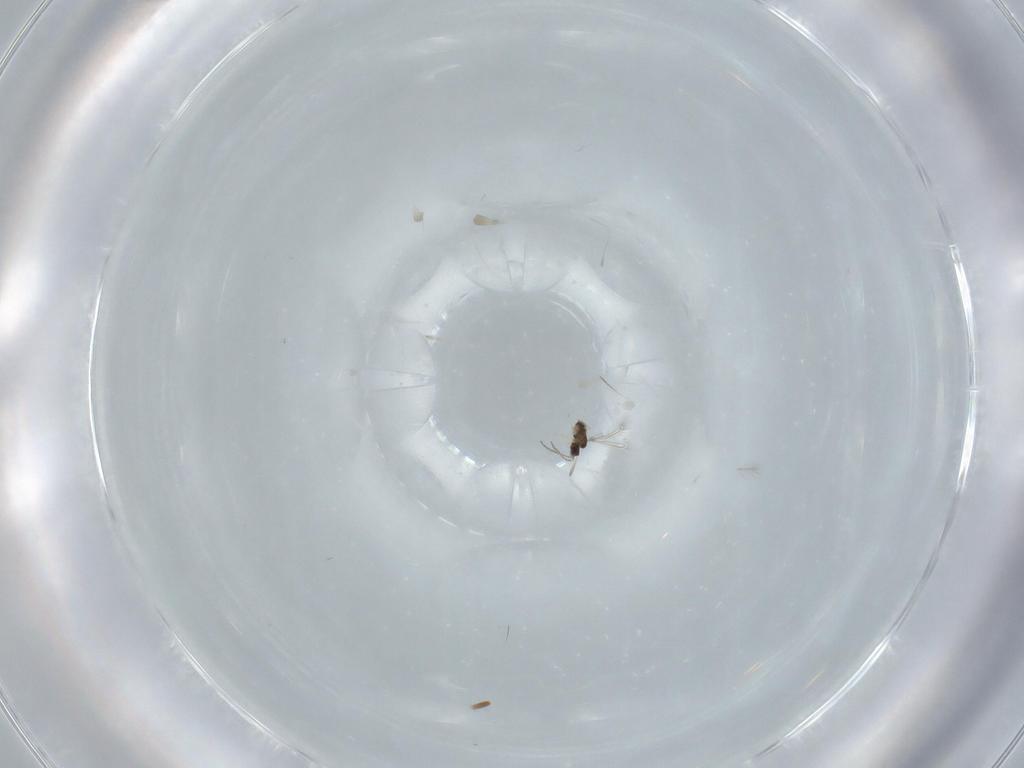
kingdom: Animalia
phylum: Arthropoda
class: Insecta
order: Hymenoptera
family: Mymaridae
